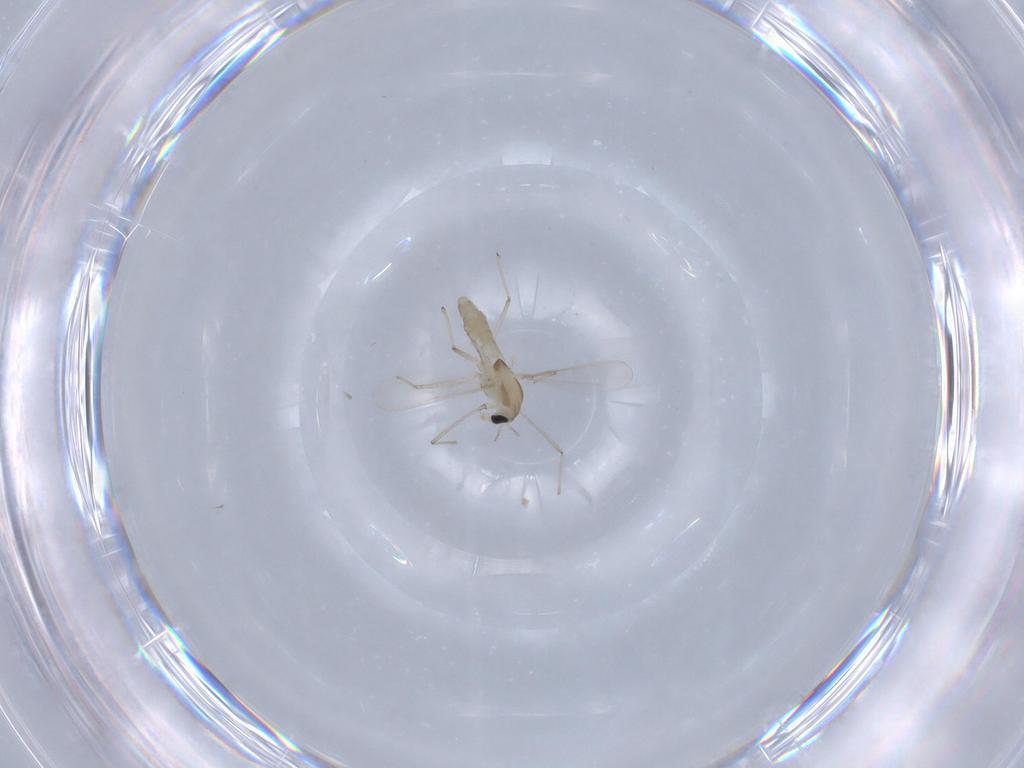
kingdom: Animalia
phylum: Arthropoda
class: Insecta
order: Diptera
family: Chironomidae
